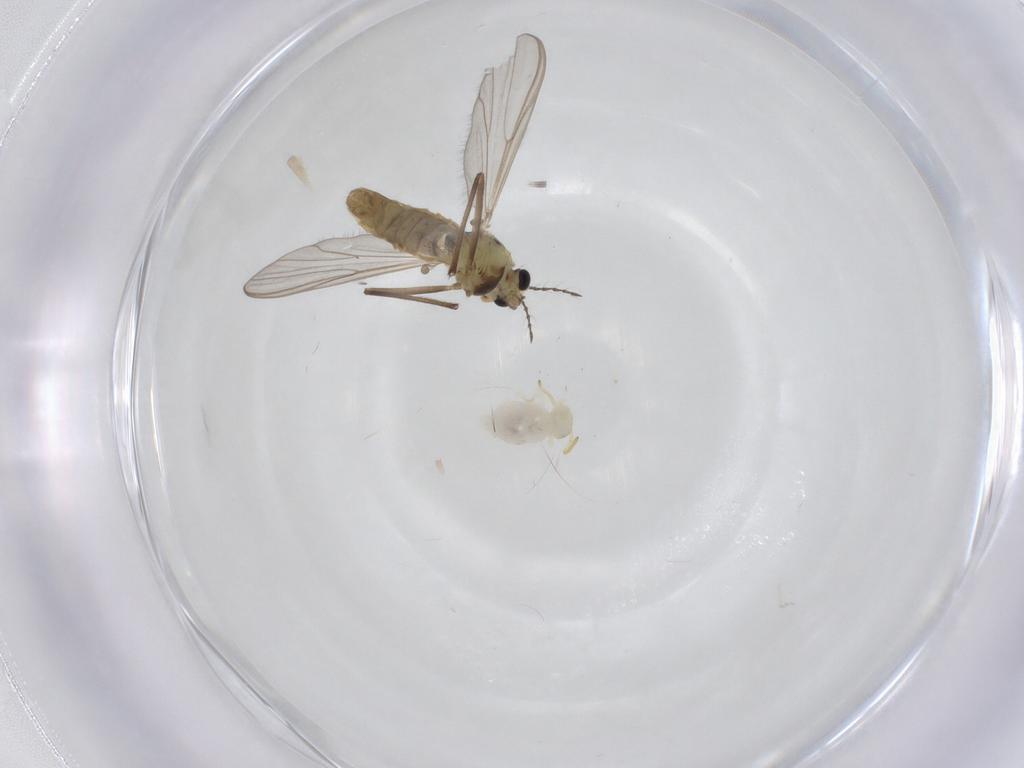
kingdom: Animalia
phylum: Arthropoda
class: Insecta
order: Diptera
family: Chironomidae
